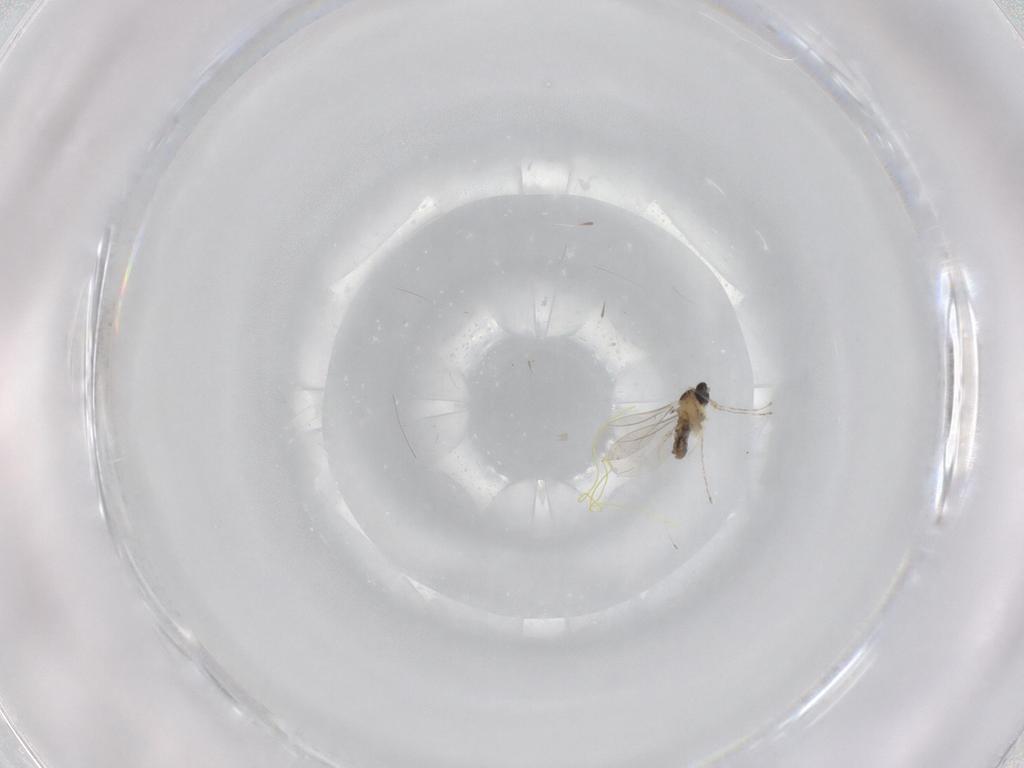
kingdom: Animalia
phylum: Arthropoda
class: Insecta
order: Diptera
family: Cecidomyiidae
